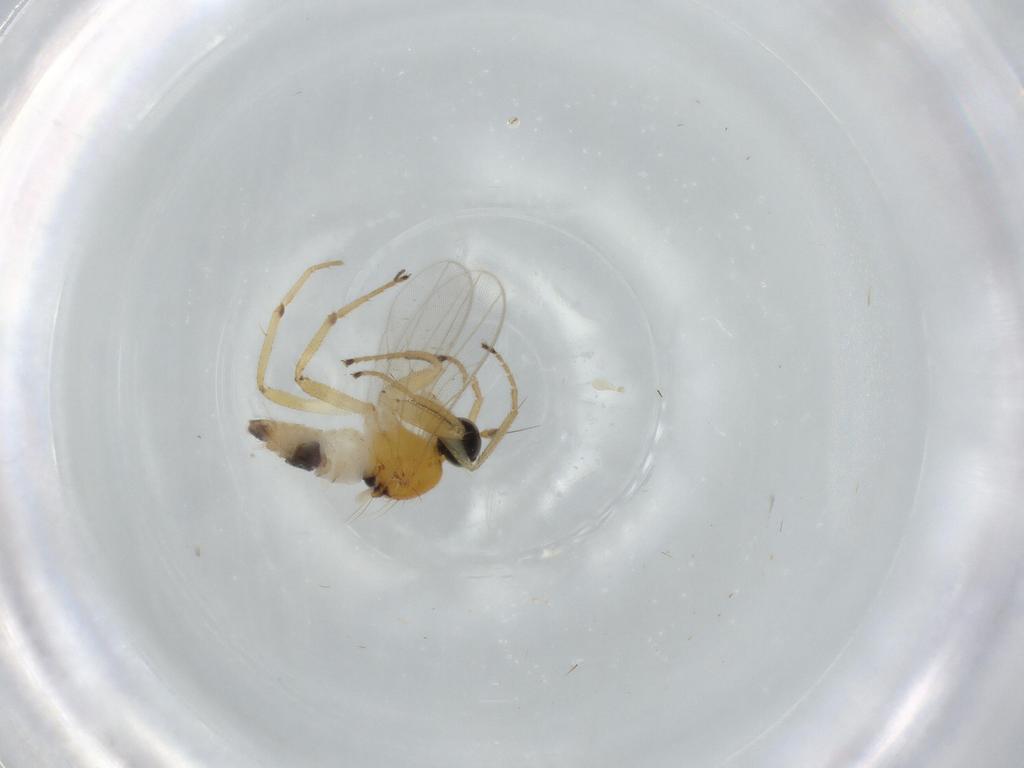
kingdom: Animalia
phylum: Arthropoda
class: Insecta
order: Diptera
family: Hybotidae
